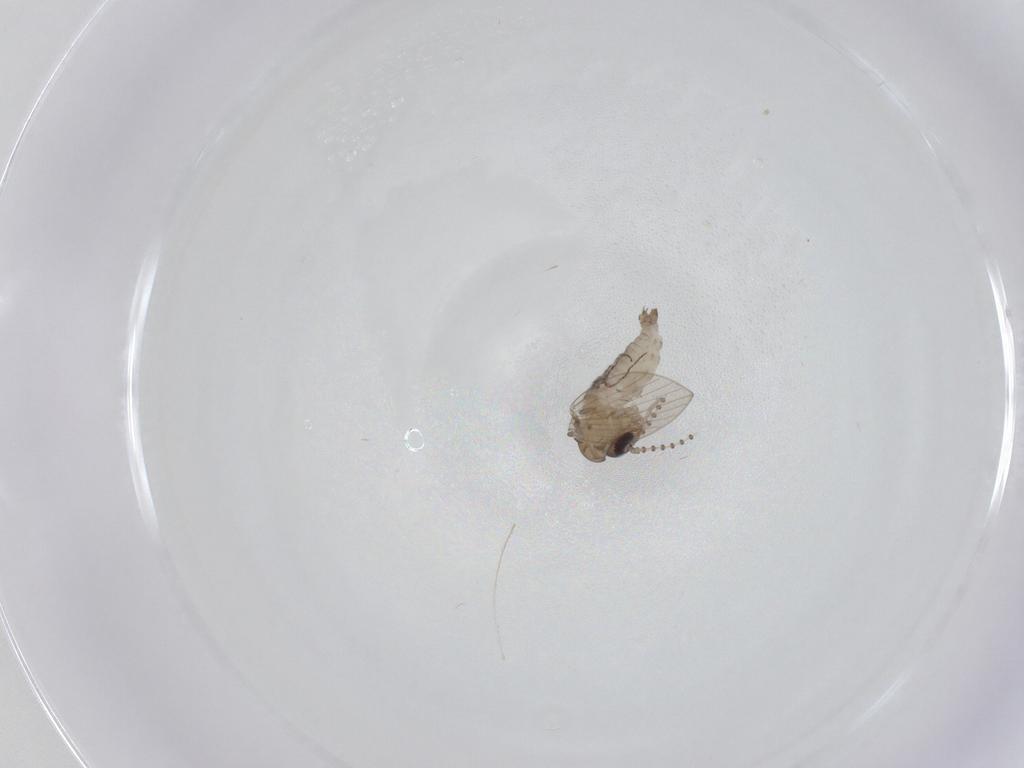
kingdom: Animalia
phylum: Arthropoda
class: Insecta
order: Diptera
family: Psychodidae
